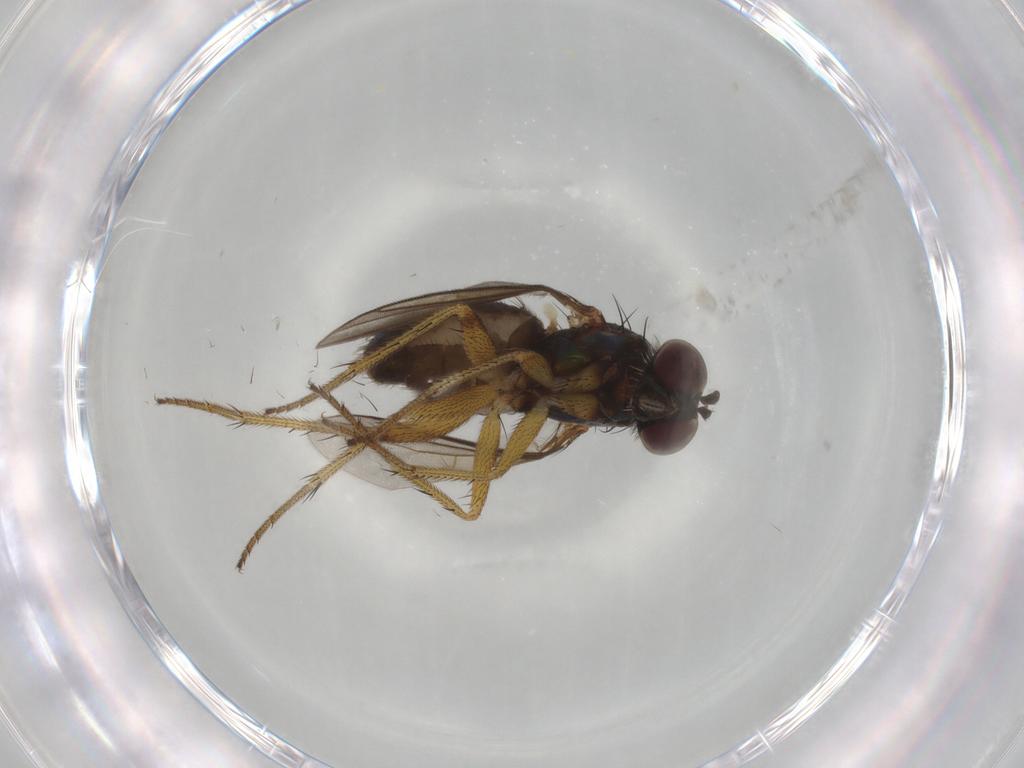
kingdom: Animalia
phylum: Arthropoda
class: Insecta
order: Diptera
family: Dolichopodidae
